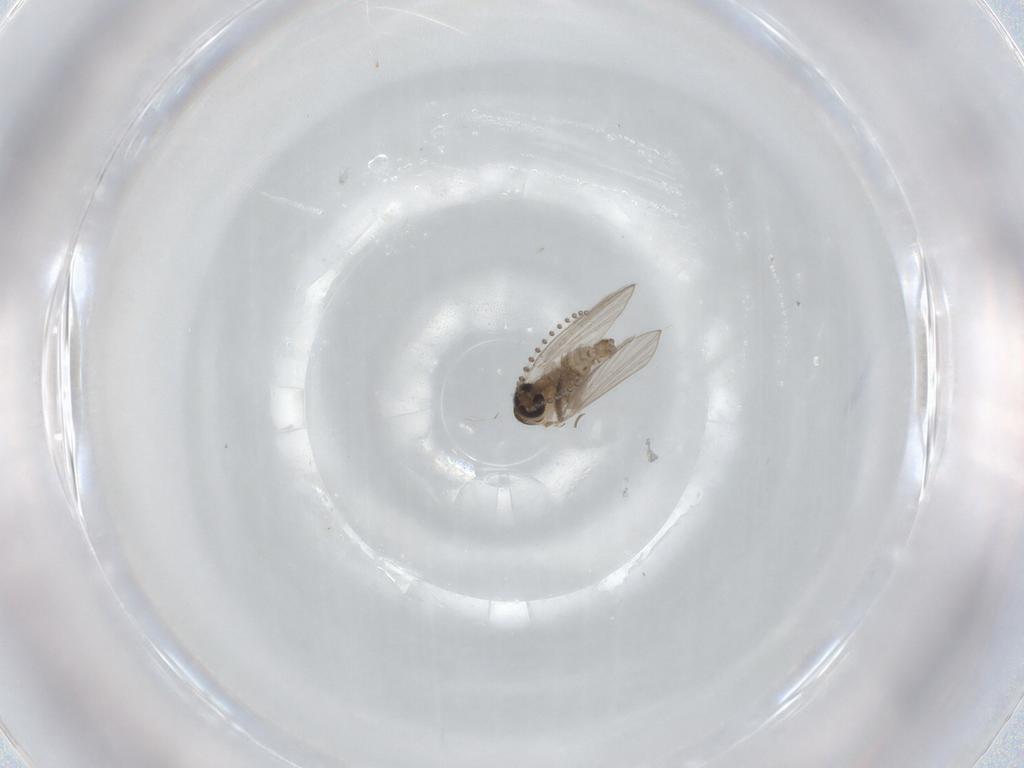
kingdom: Animalia
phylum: Arthropoda
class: Insecta
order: Diptera
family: Psychodidae
